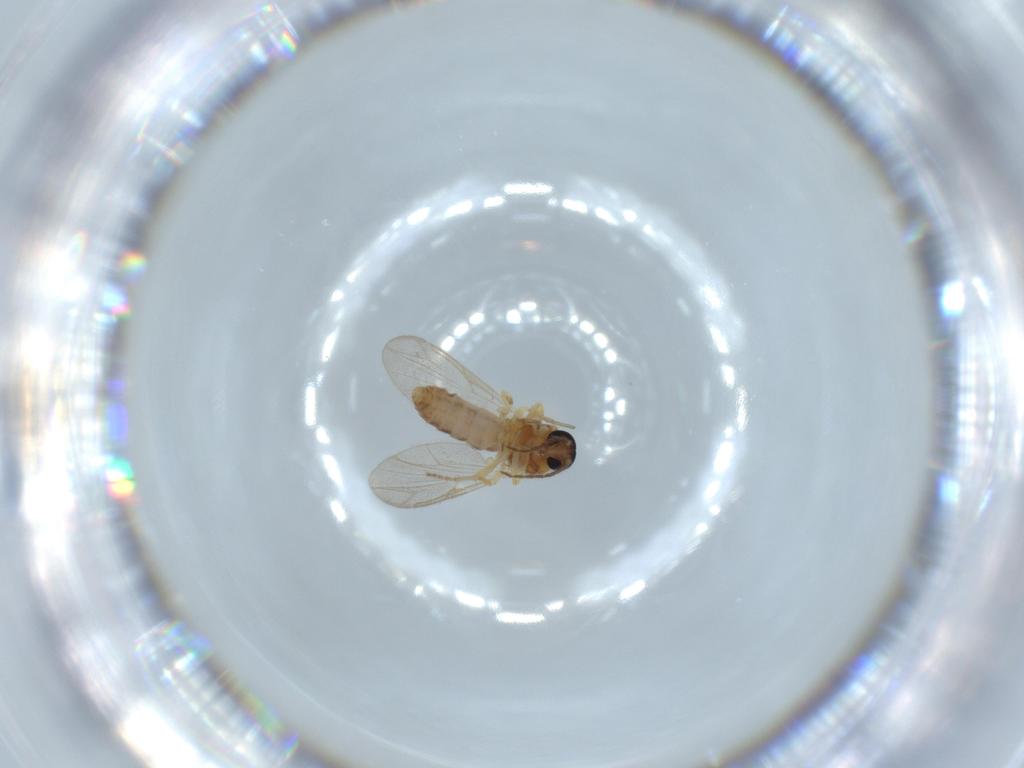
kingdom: Animalia
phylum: Arthropoda
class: Insecta
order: Diptera
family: Ceratopogonidae
